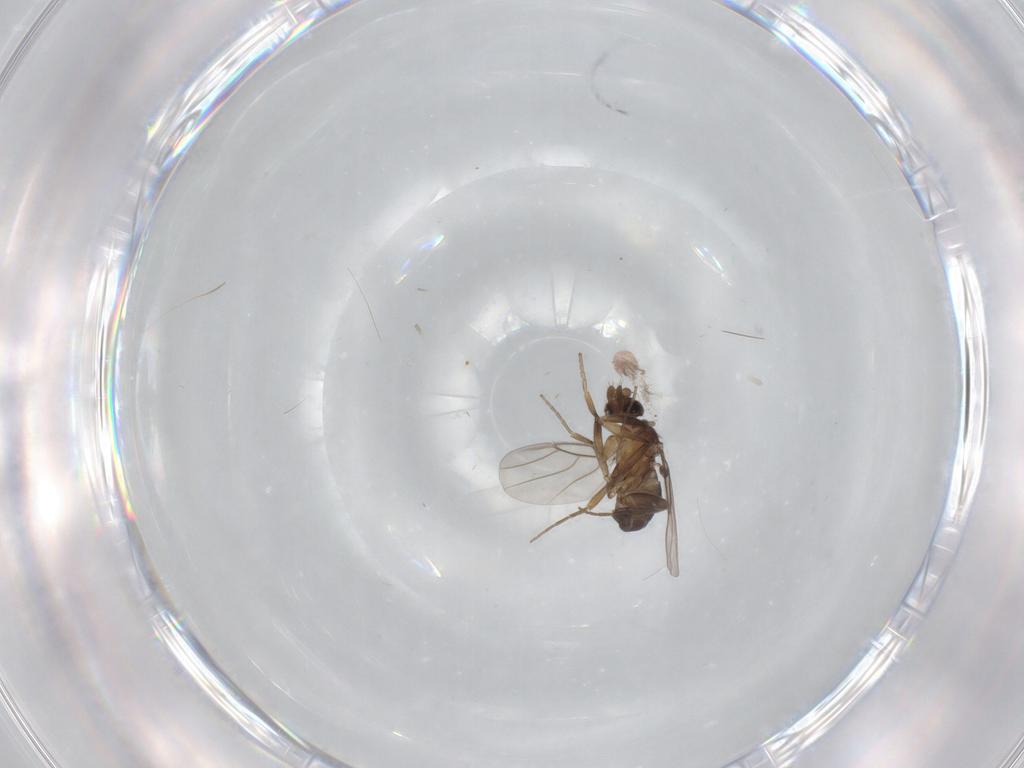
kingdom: Animalia
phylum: Arthropoda
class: Insecta
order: Diptera
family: Phoridae
